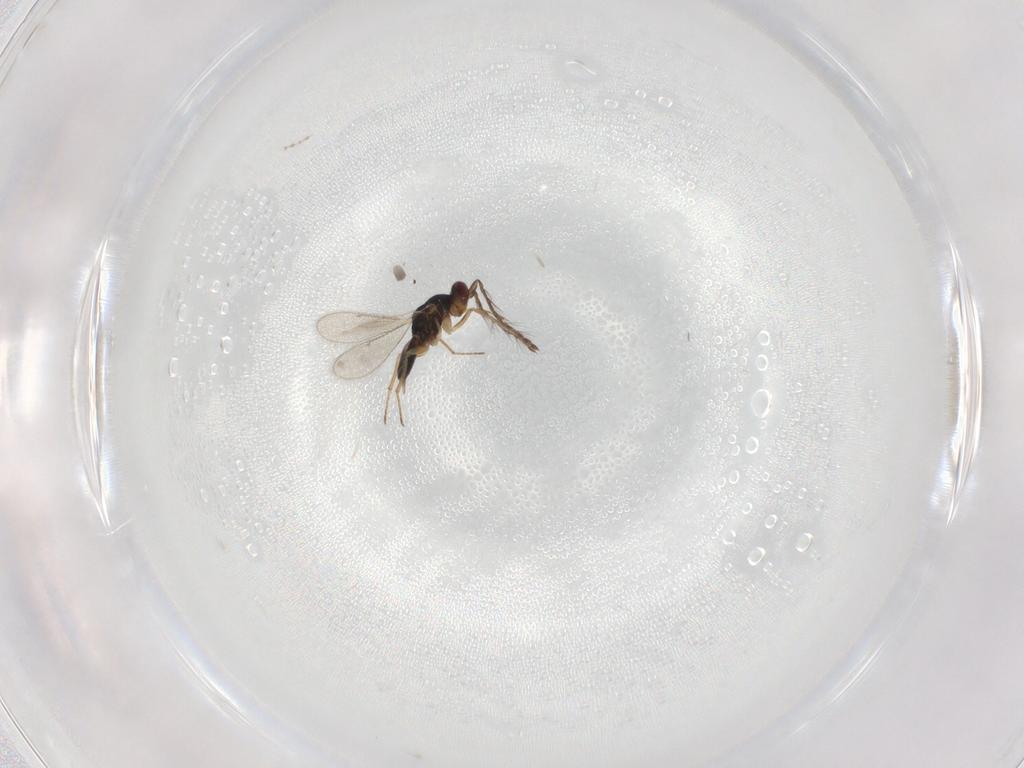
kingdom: Animalia
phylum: Arthropoda
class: Insecta
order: Hymenoptera
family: Eulophidae
